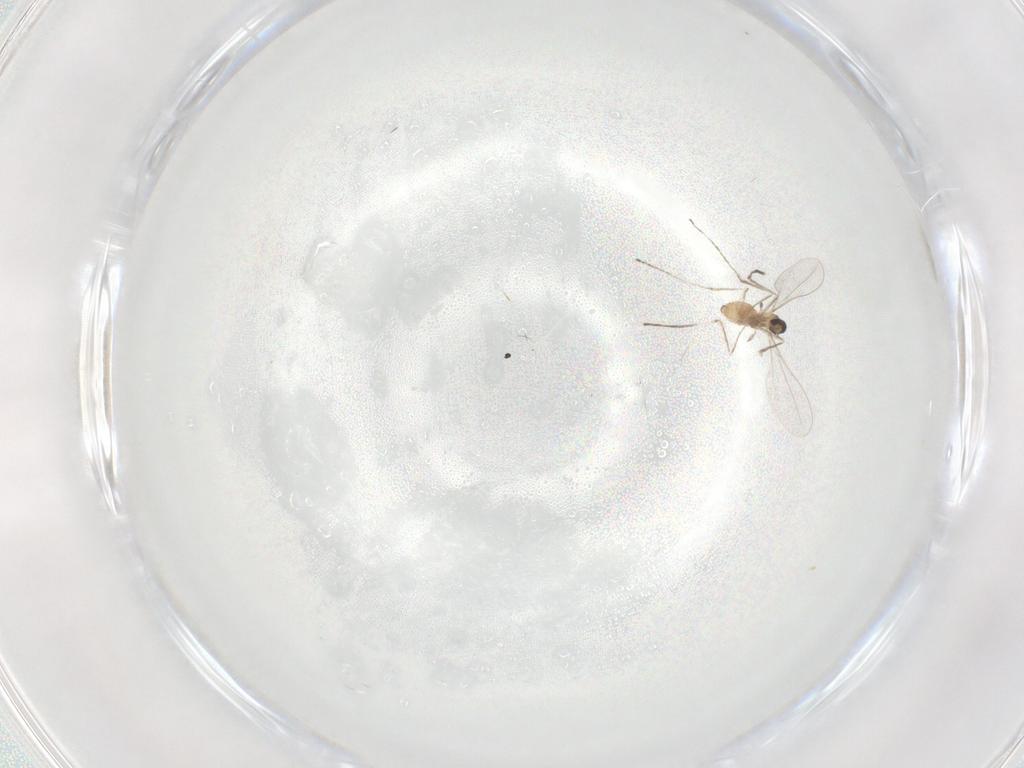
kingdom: Animalia
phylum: Arthropoda
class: Insecta
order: Diptera
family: Cecidomyiidae
